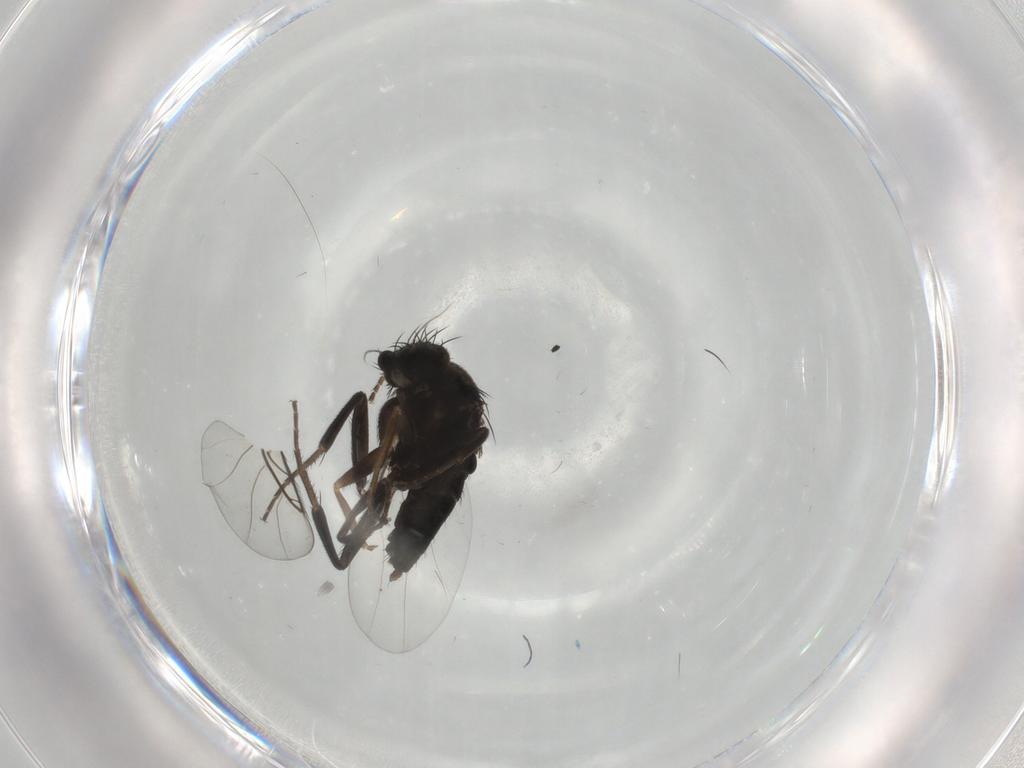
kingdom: Animalia
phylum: Arthropoda
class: Insecta
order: Diptera
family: Phoridae
